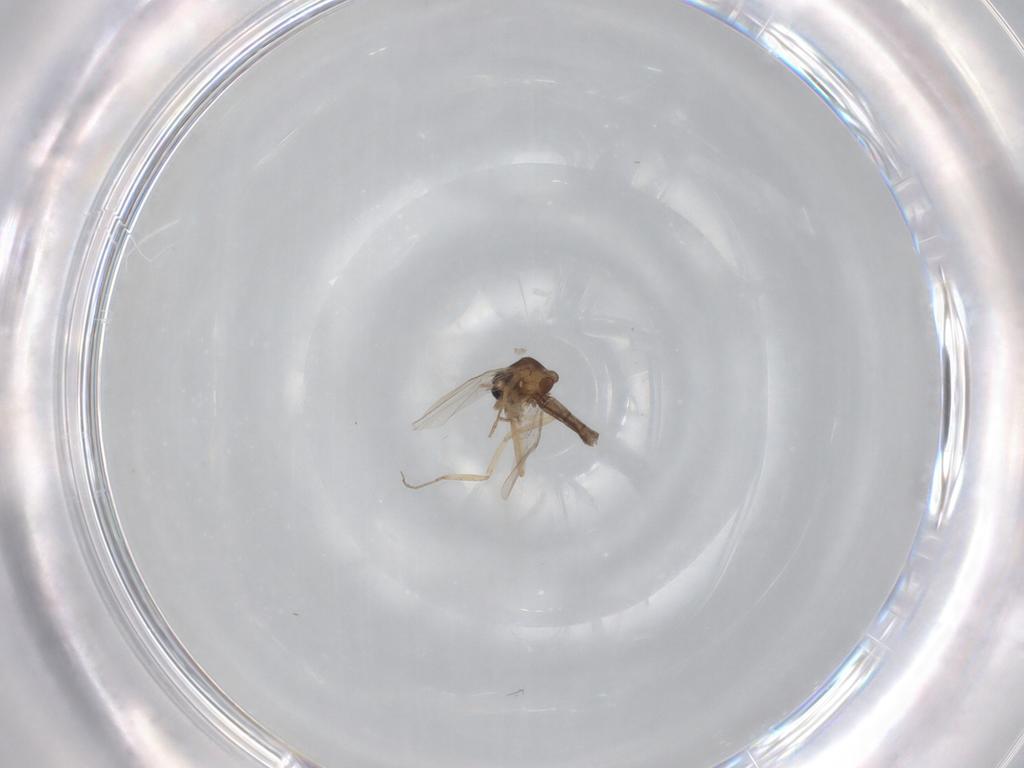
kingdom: Animalia
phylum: Arthropoda
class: Insecta
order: Diptera
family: Ceratopogonidae
